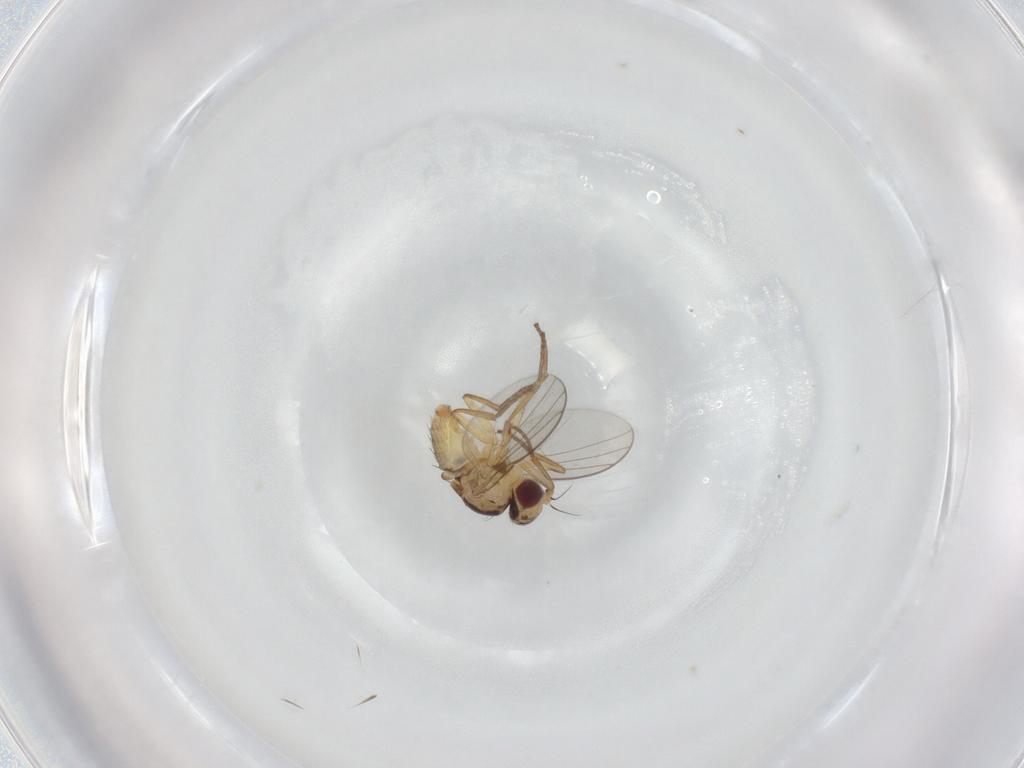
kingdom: Animalia
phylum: Arthropoda
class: Insecta
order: Diptera
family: Agromyzidae
